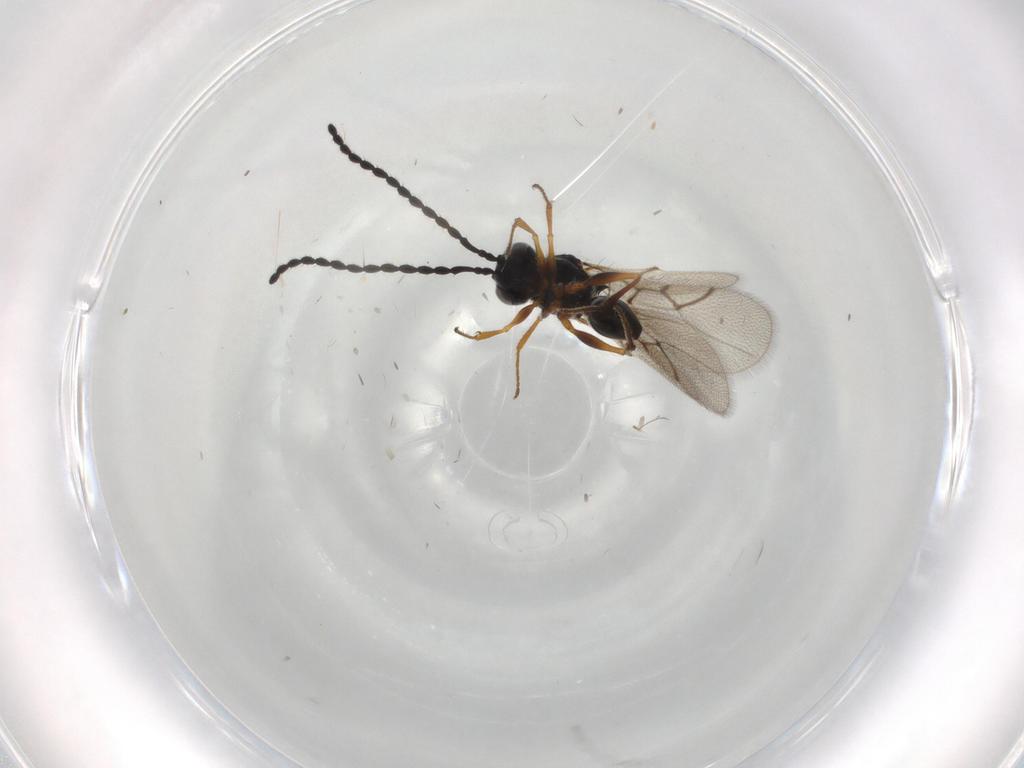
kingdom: Animalia
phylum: Arthropoda
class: Insecta
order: Hymenoptera
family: Figitidae
